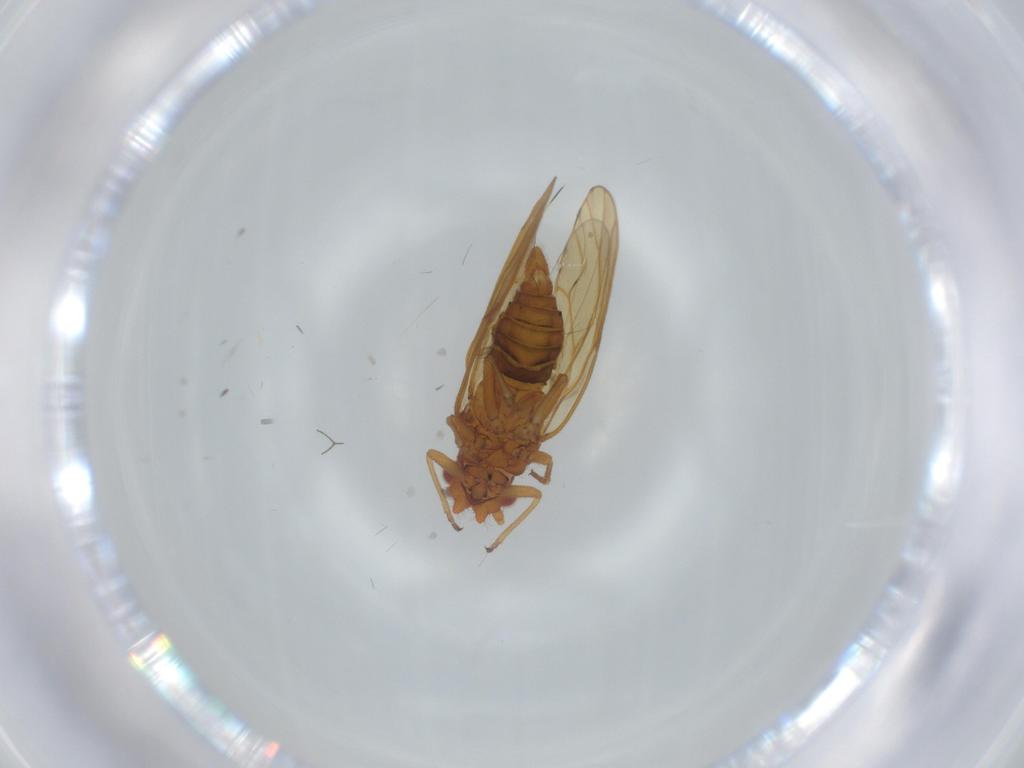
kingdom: Animalia
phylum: Arthropoda
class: Insecta
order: Hemiptera
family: Psylloidea_incertae_sedis
